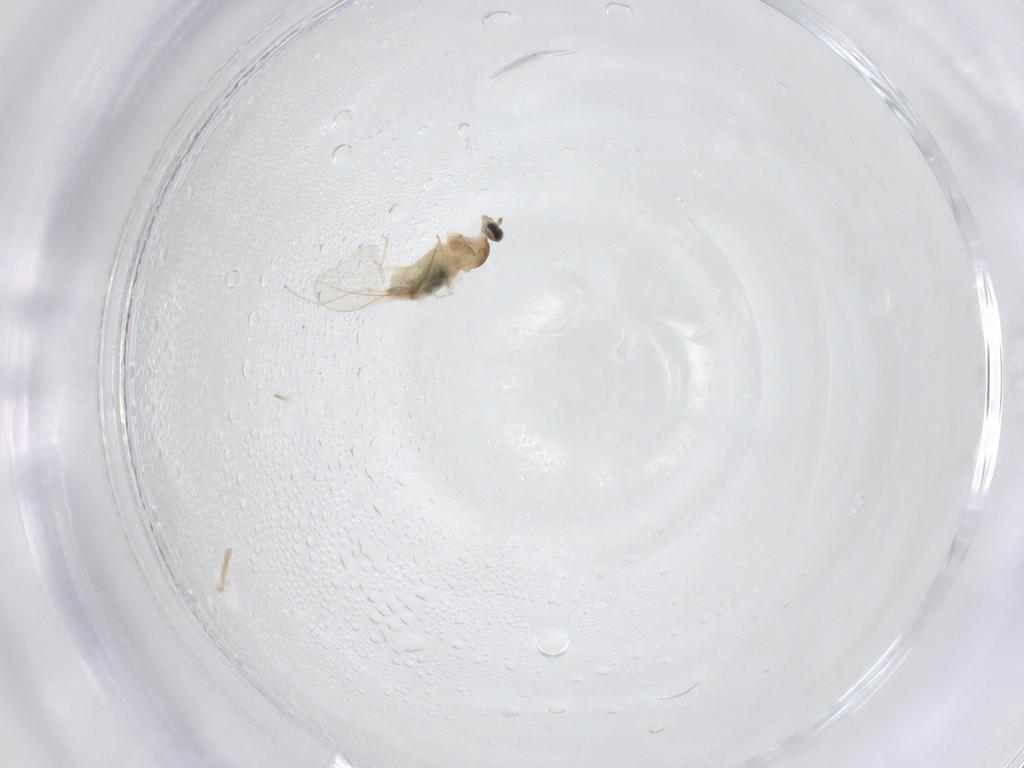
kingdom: Animalia
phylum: Arthropoda
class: Insecta
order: Diptera
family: Cecidomyiidae
